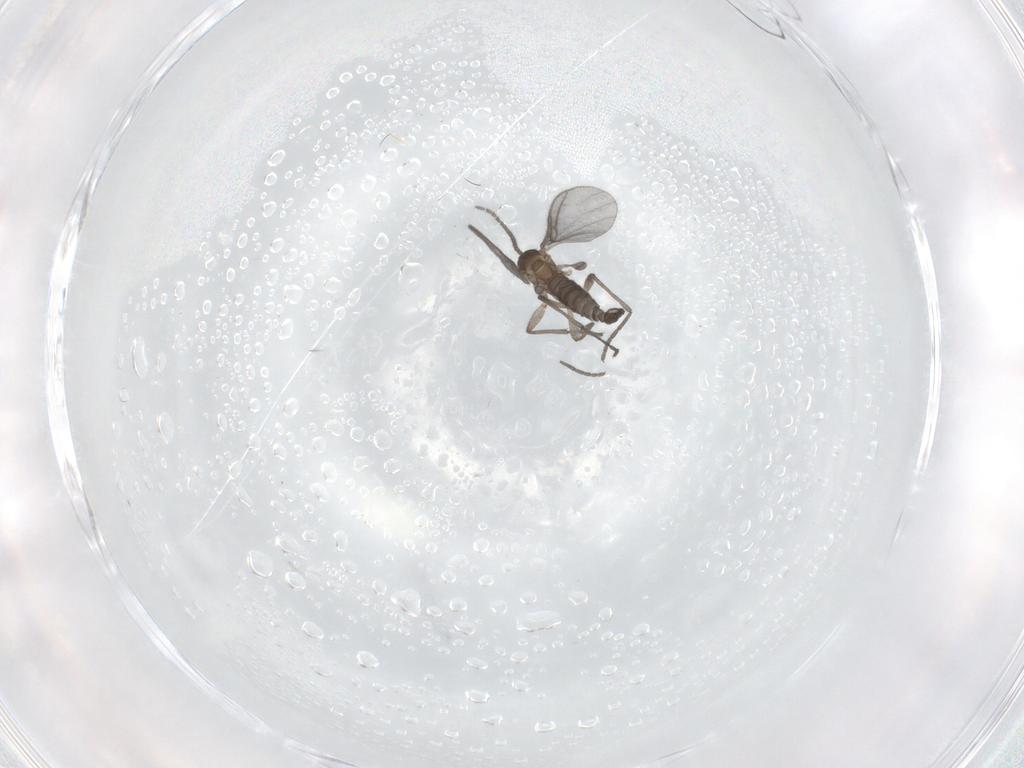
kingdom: Animalia
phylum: Arthropoda
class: Insecta
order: Diptera
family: Sciaridae
